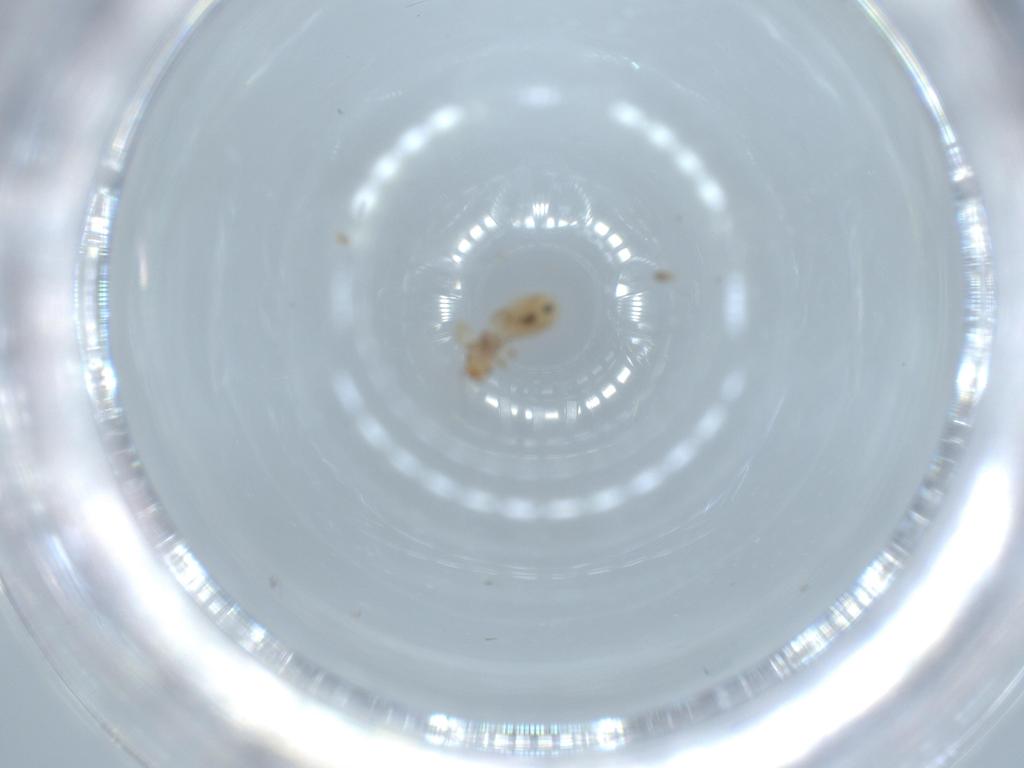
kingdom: Animalia
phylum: Arthropoda
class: Insecta
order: Psocodea
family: Liposcelididae
